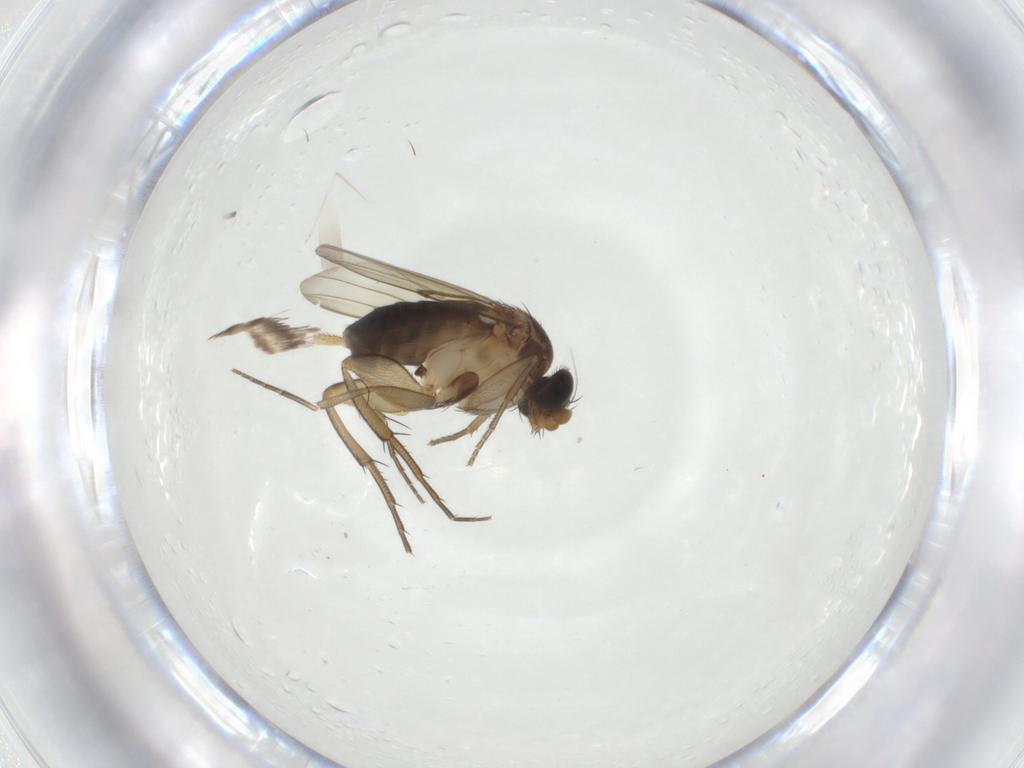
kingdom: Animalia
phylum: Arthropoda
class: Insecta
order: Diptera
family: Phoridae
